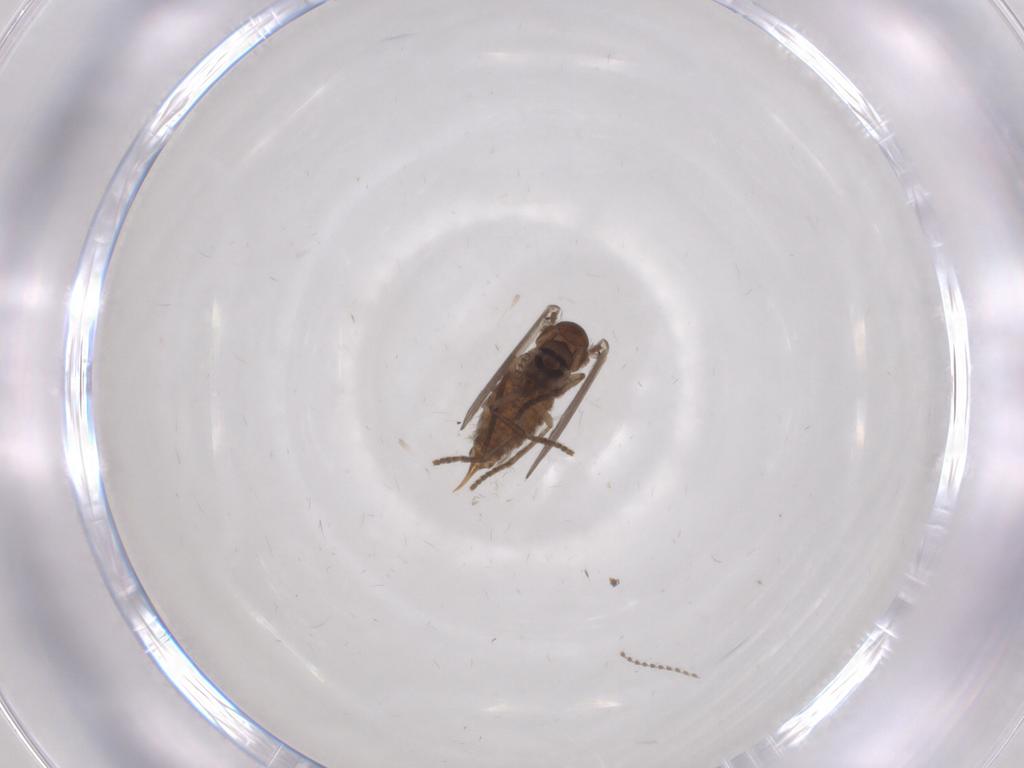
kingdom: Animalia
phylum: Arthropoda
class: Insecta
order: Diptera
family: Psychodidae
